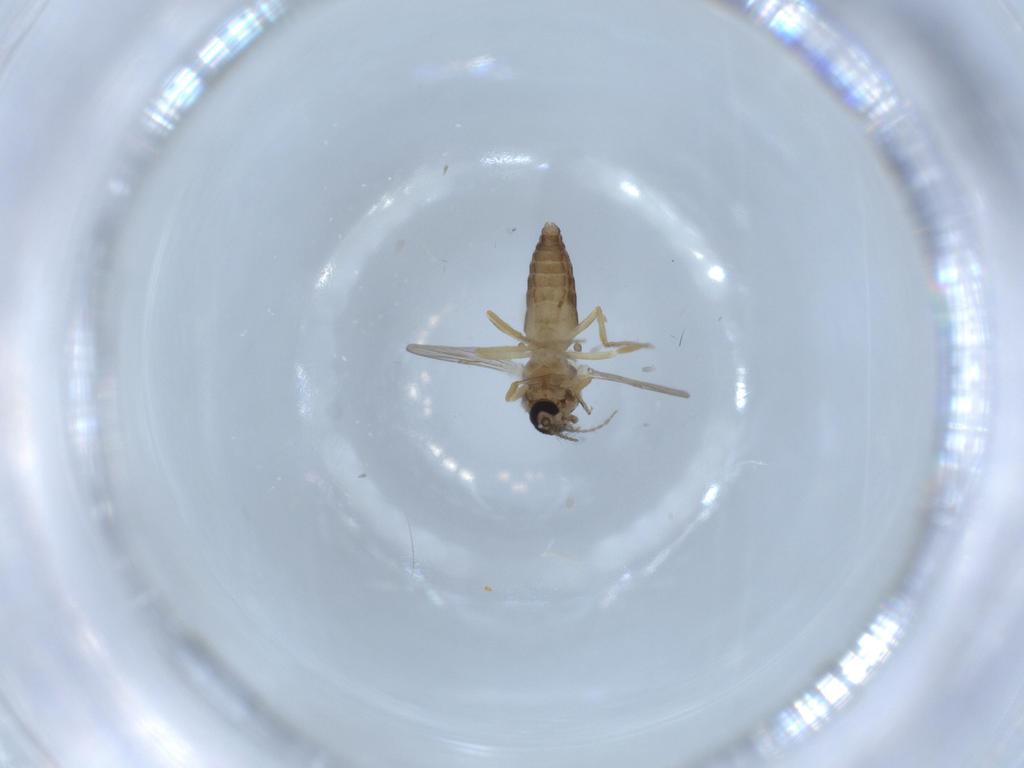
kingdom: Animalia
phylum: Arthropoda
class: Insecta
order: Diptera
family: Ceratopogonidae
